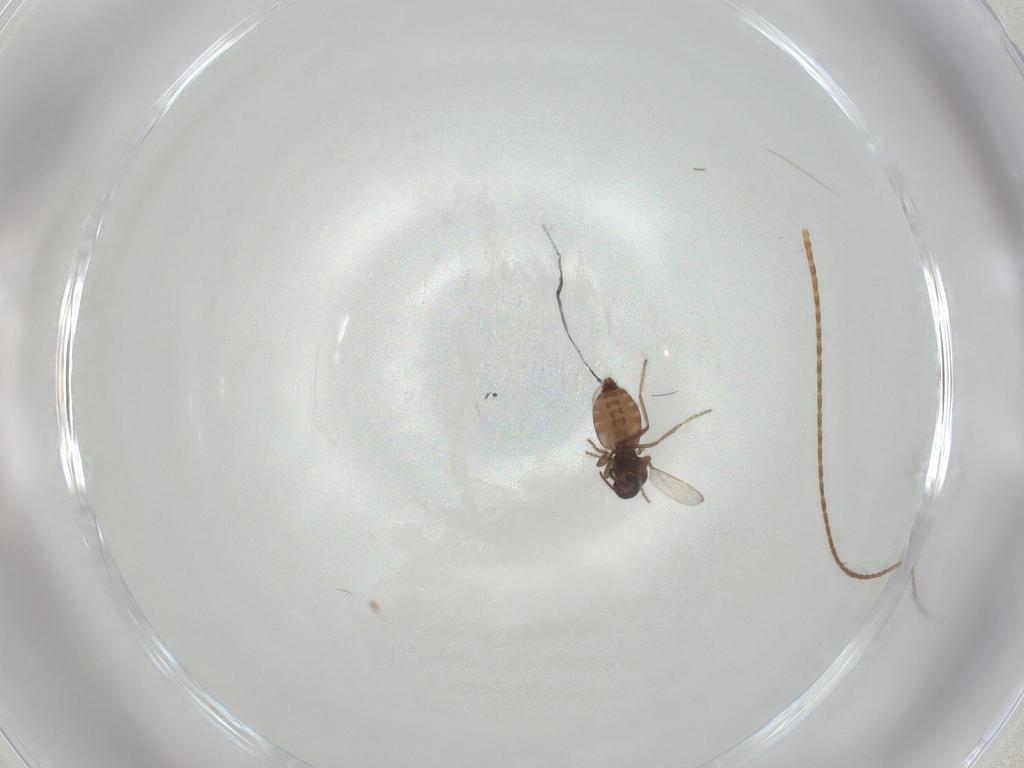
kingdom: Animalia
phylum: Arthropoda
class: Insecta
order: Diptera
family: Ceratopogonidae
